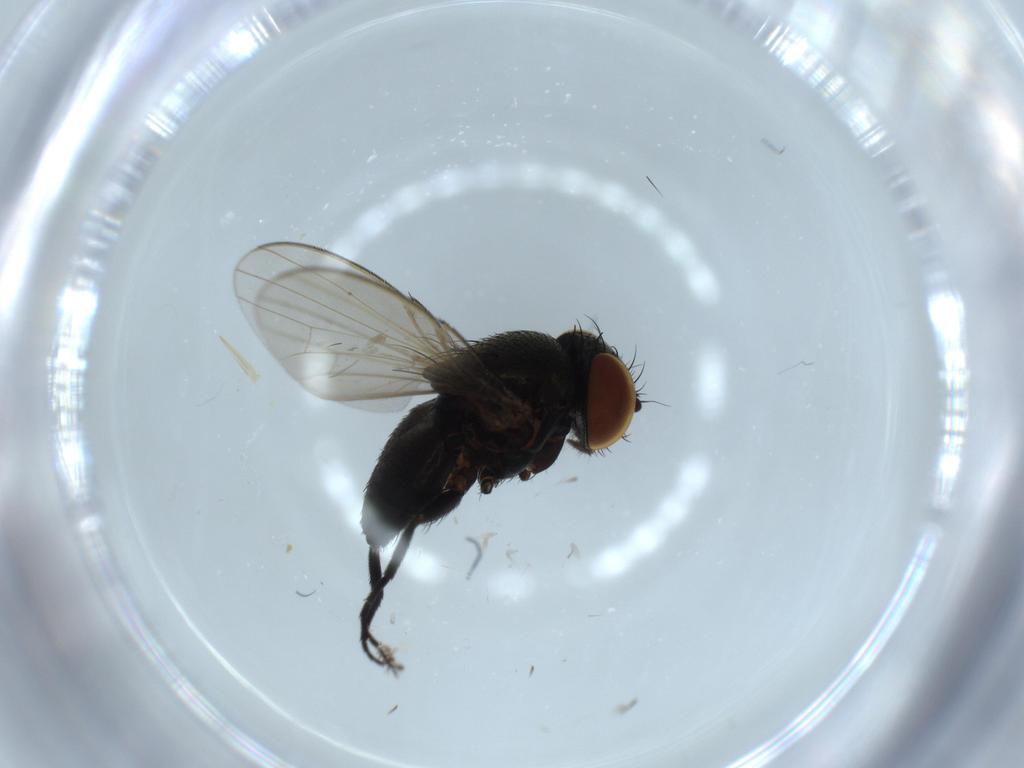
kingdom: Animalia
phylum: Arthropoda
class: Insecta
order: Diptera
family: Milichiidae
